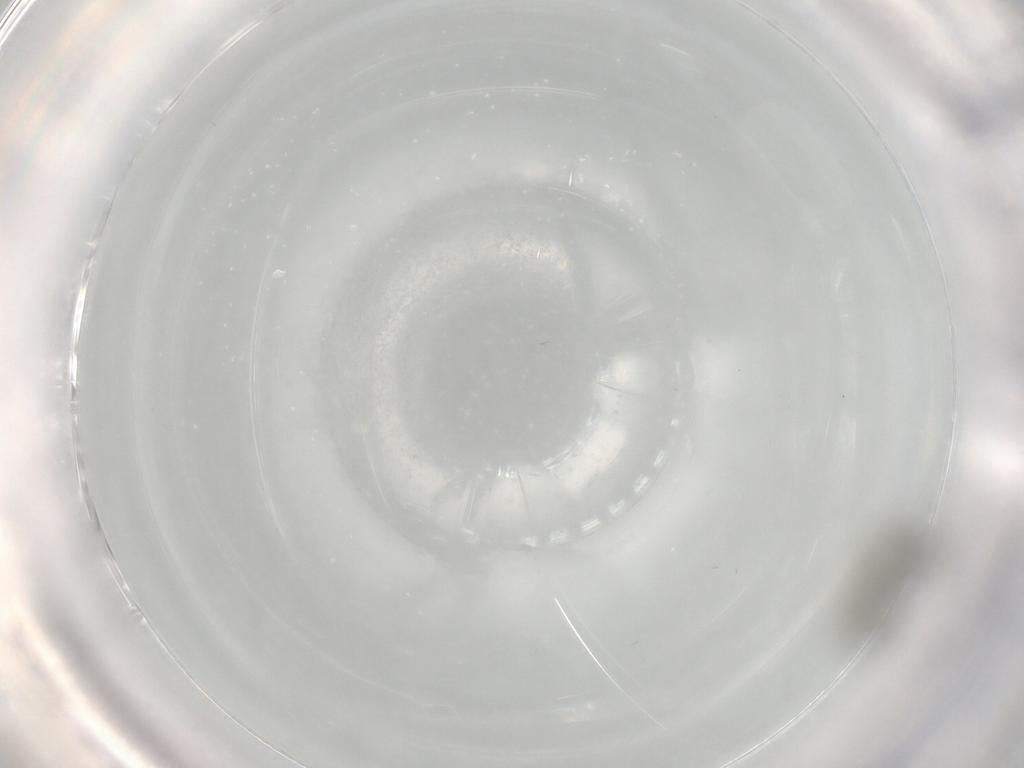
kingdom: Animalia
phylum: Arthropoda
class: Insecta
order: Diptera
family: Cecidomyiidae
